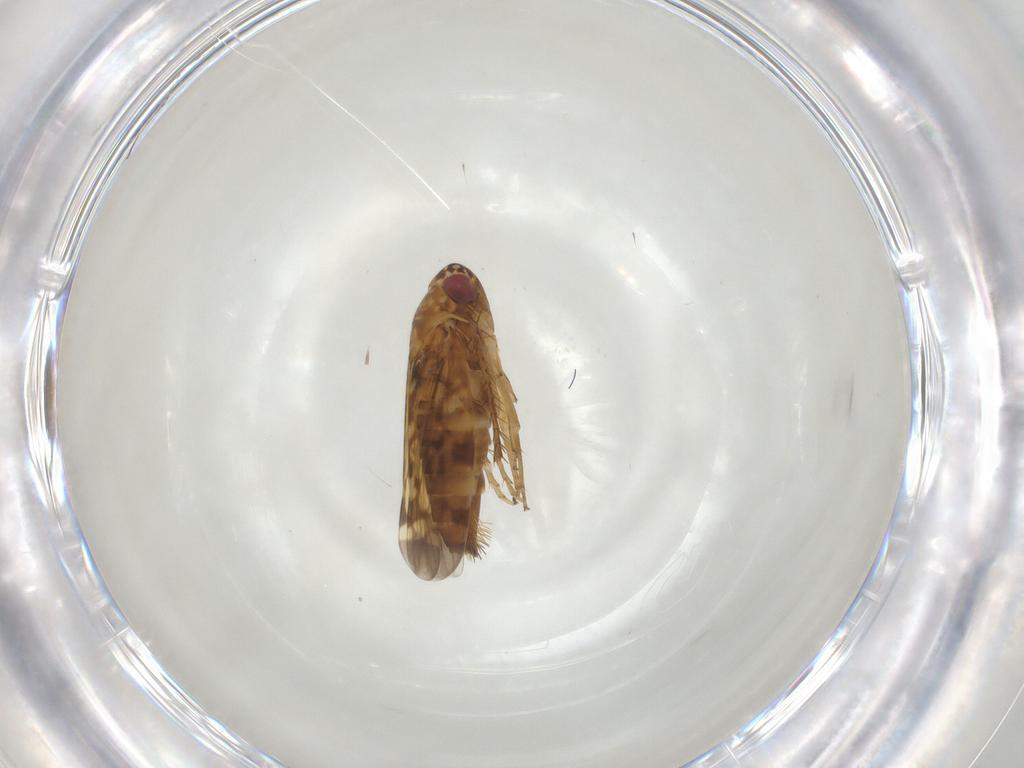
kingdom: Animalia
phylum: Arthropoda
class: Insecta
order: Hemiptera
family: Cicadellidae
